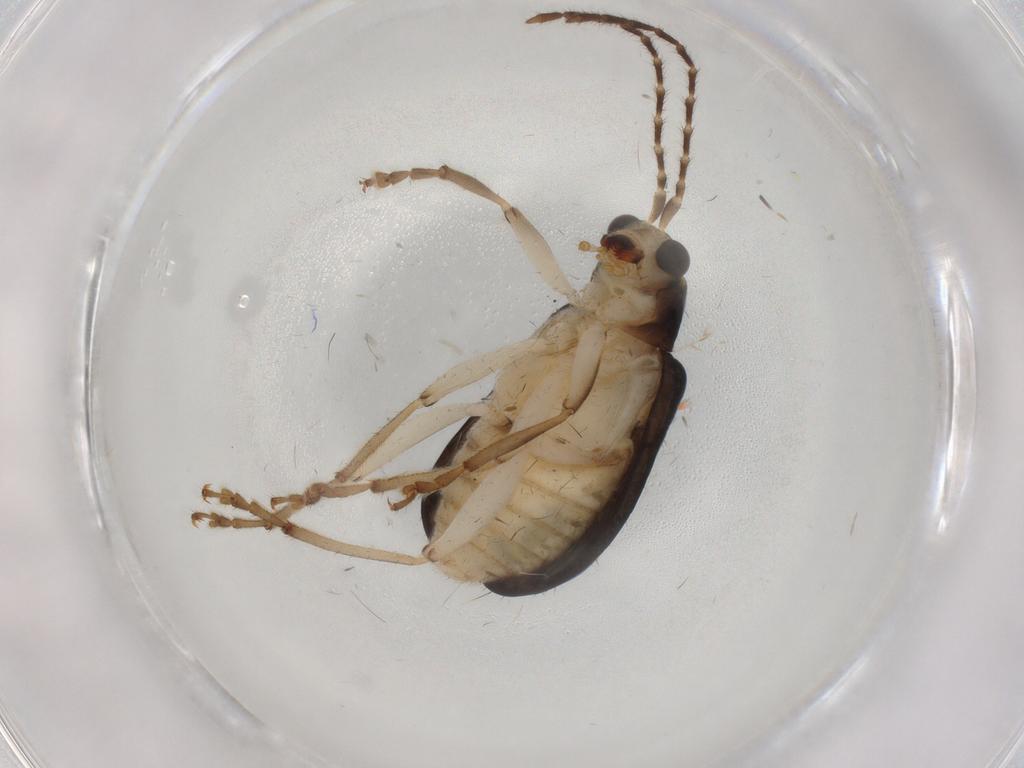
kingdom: Animalia
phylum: Arthropoda
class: Insecta
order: Coleoptera
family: Chrysomelidae
